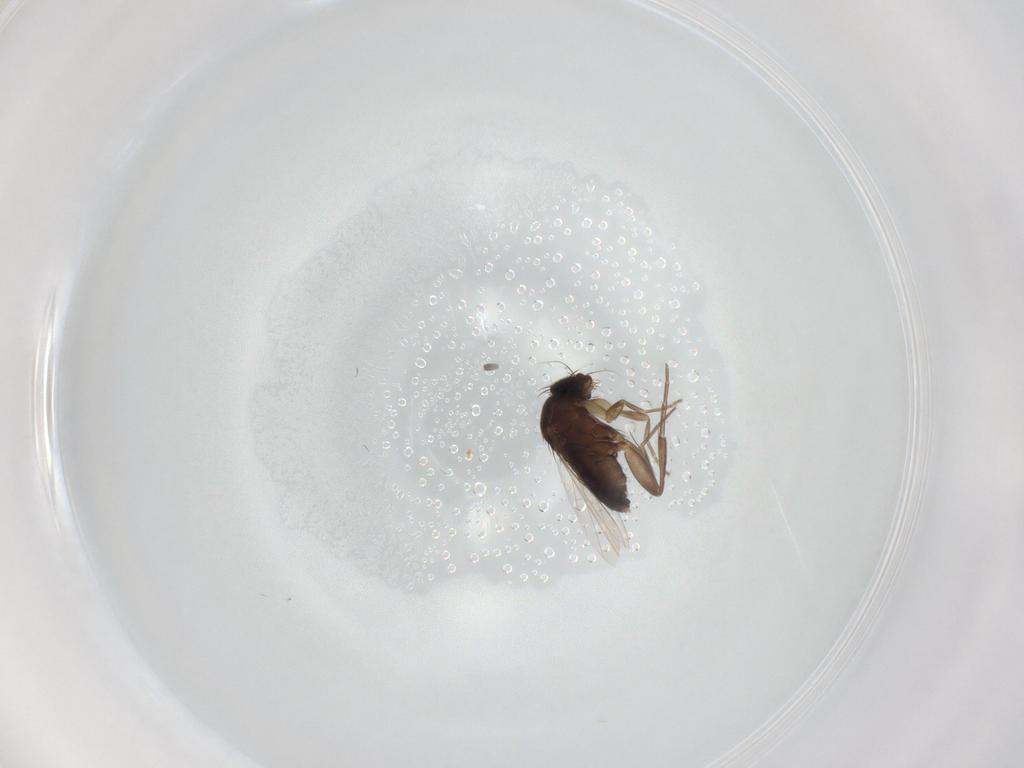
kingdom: Animalia
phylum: Arthropoda
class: Insecta
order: Diptera
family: Phoridae
